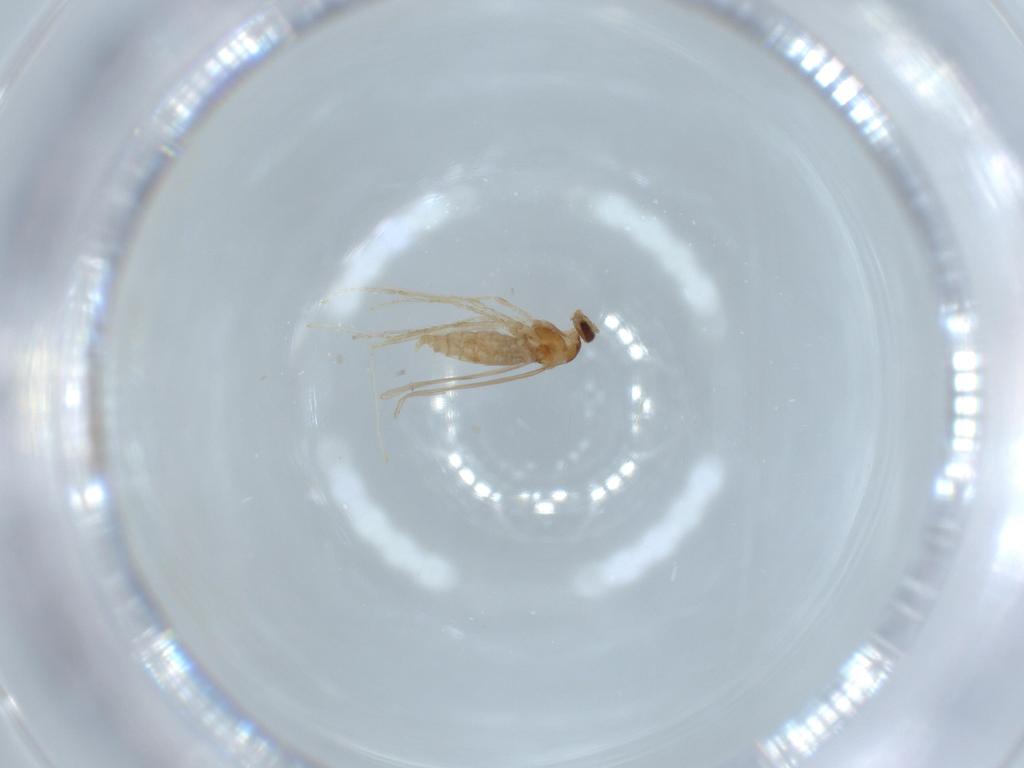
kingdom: Animalia
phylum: Arthropoda
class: Insecta
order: Diptera
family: Cecidomyiidae
